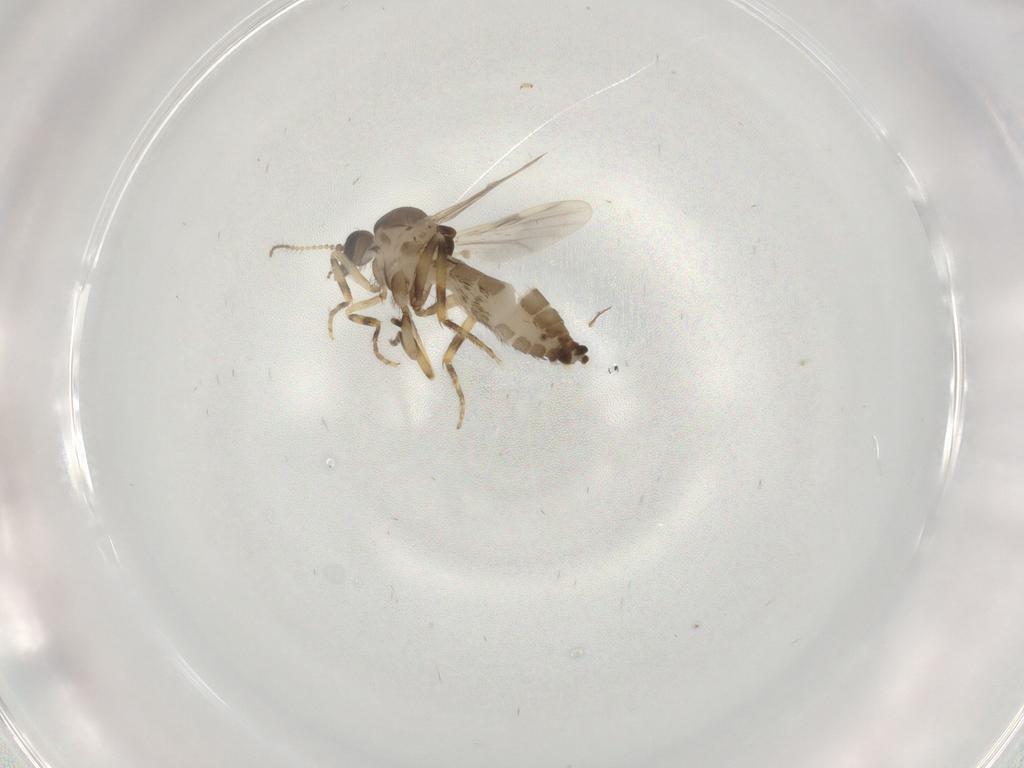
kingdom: Animalia
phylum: Arthropoda
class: Insecta
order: Diptera
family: Ceratopogonidae
